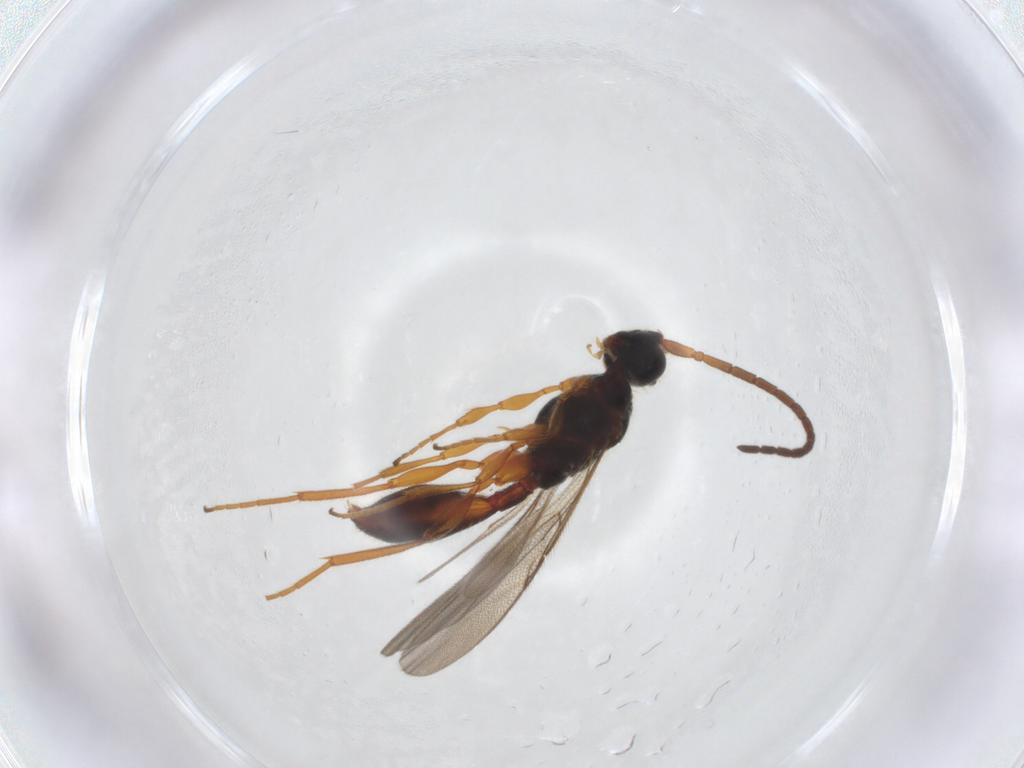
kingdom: Animalia
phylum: Arthropoda
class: Insecta
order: Hymenoptera
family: Diapriidae
